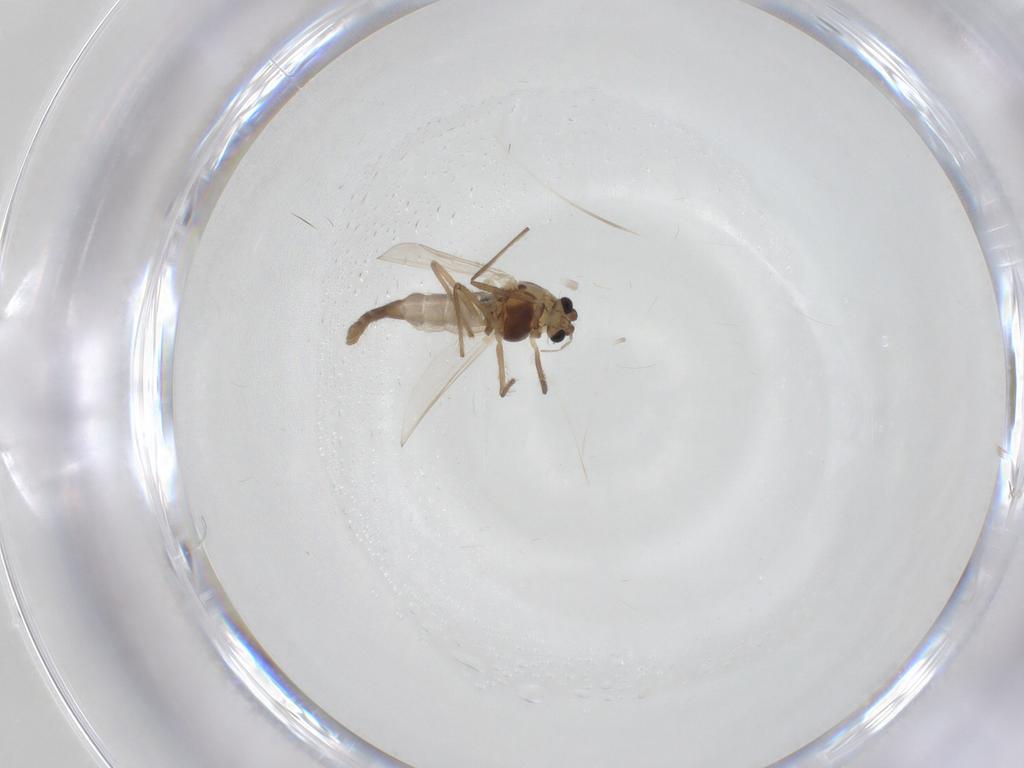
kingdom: Animalia
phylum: Arthropoda
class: Insecta
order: Diptera
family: Chironomidae
